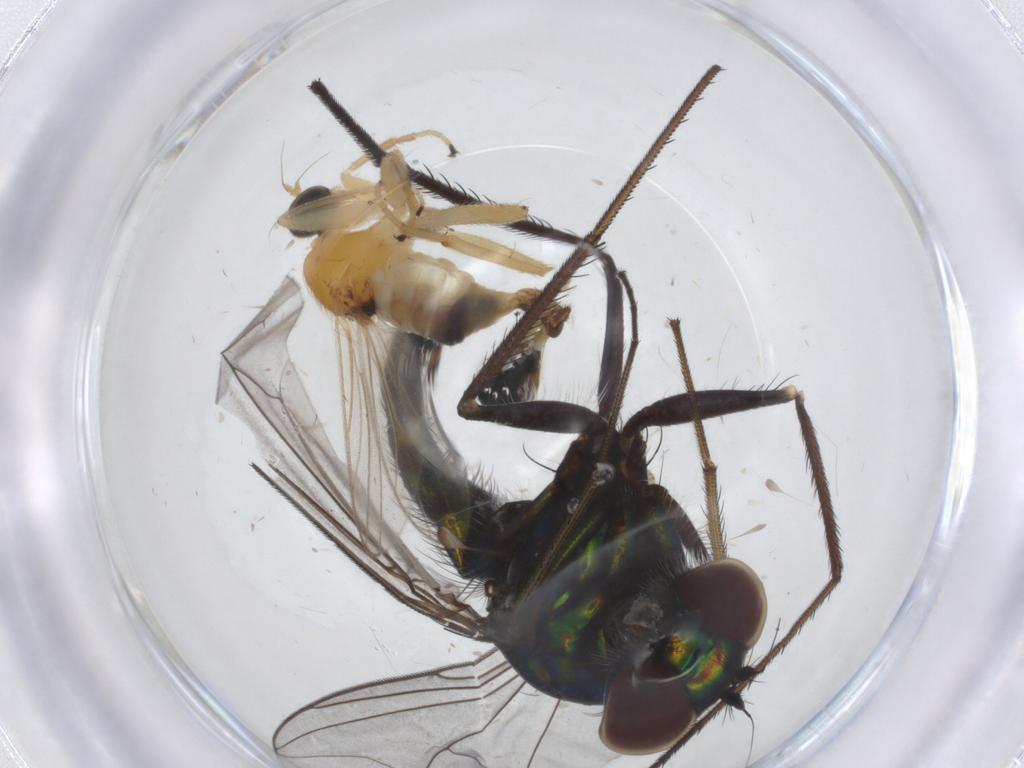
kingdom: Animalia
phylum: Arthropoda
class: Insecta
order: Diptera
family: Dolichopodidae
